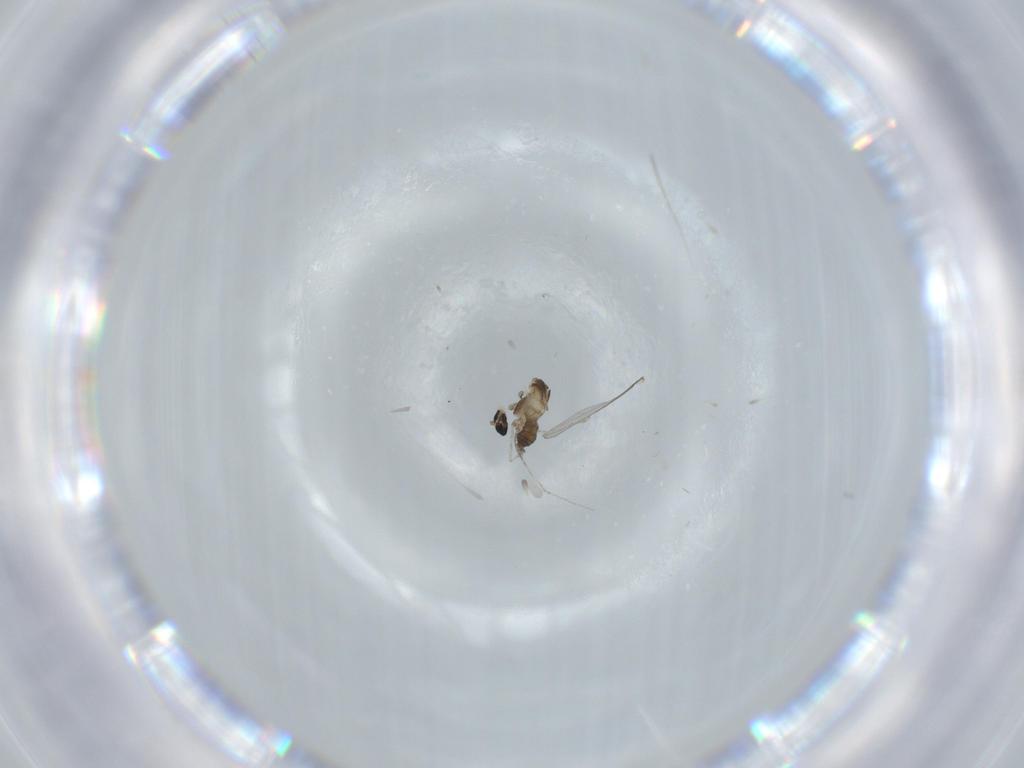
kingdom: Animalia
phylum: Arthropoda
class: Insecta
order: Diptera
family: Cecidomyiidae
